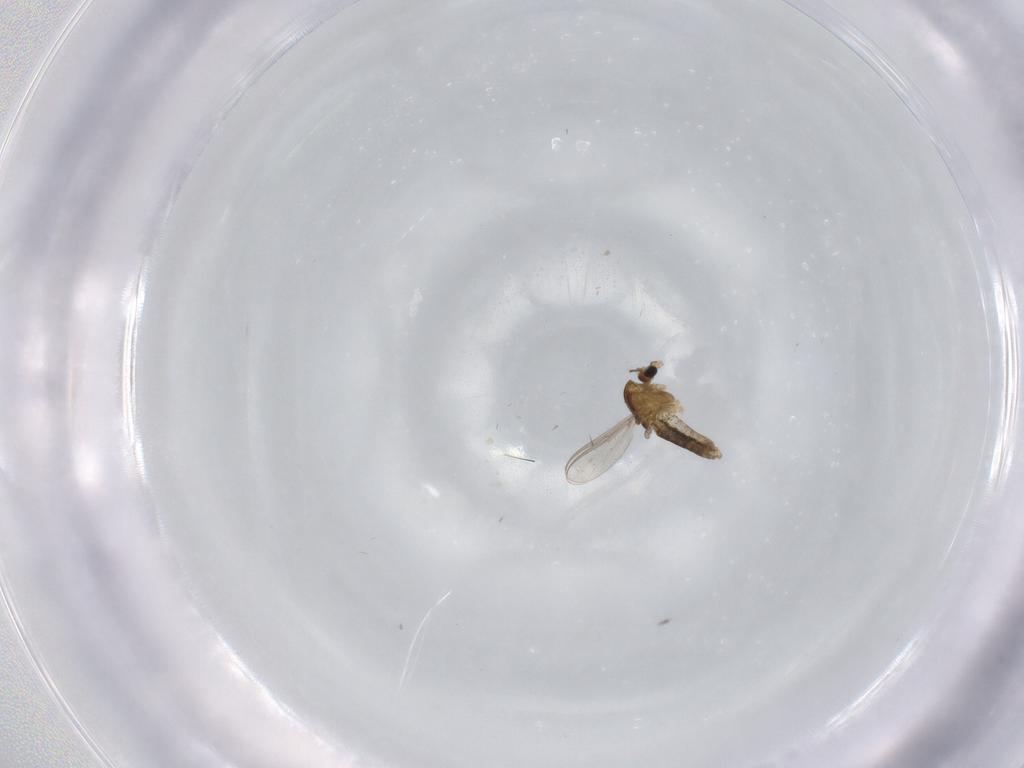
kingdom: Animalia
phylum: Arthropoda
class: Insecta
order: Diptera
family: Chironomidae
